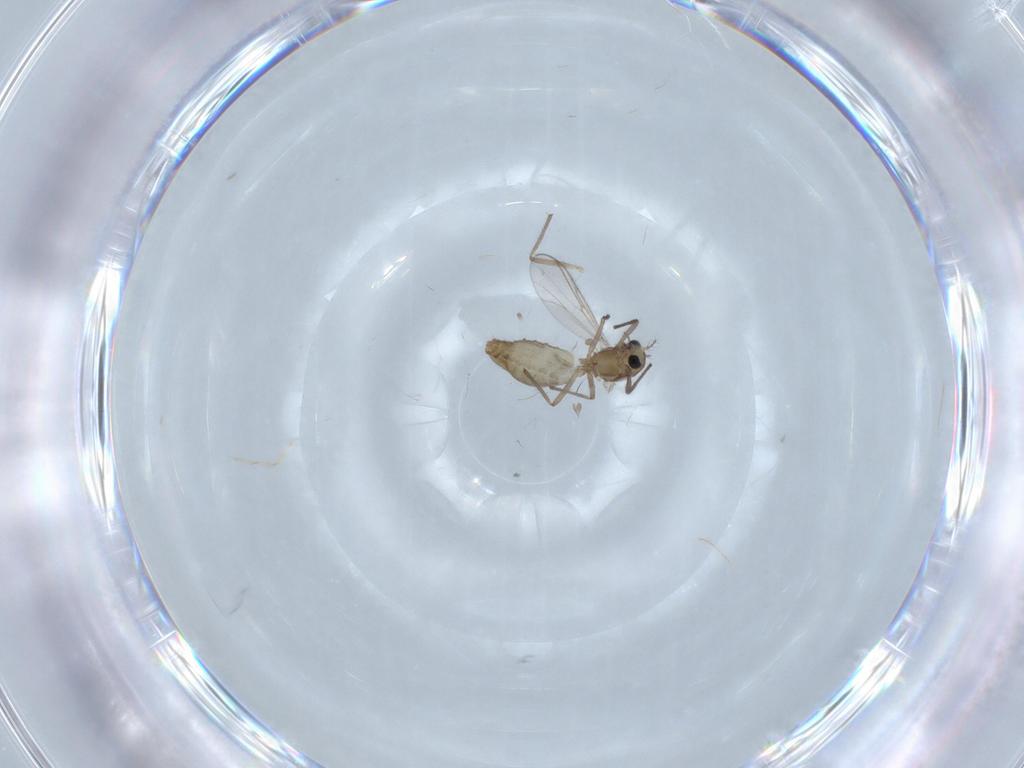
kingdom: Animalia
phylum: Arthropoda
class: Insecta
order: Diptera
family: Chironomidae
